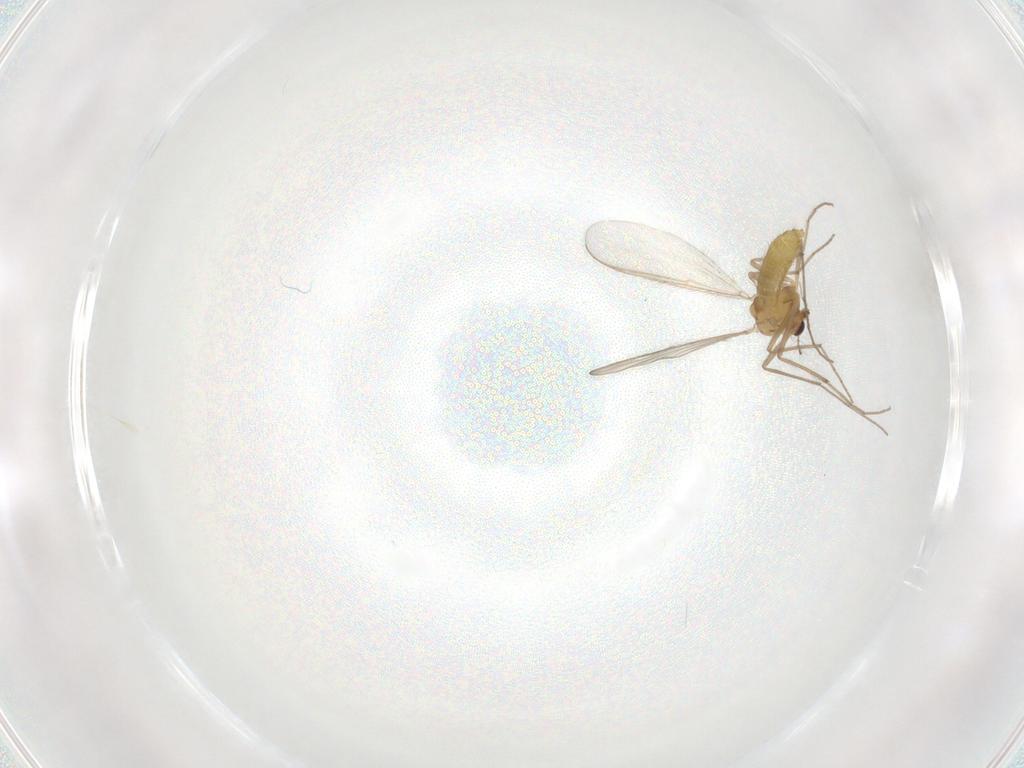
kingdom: Animalia
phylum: Arthropoda
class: Insecta
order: Diptera
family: Chironomidae
